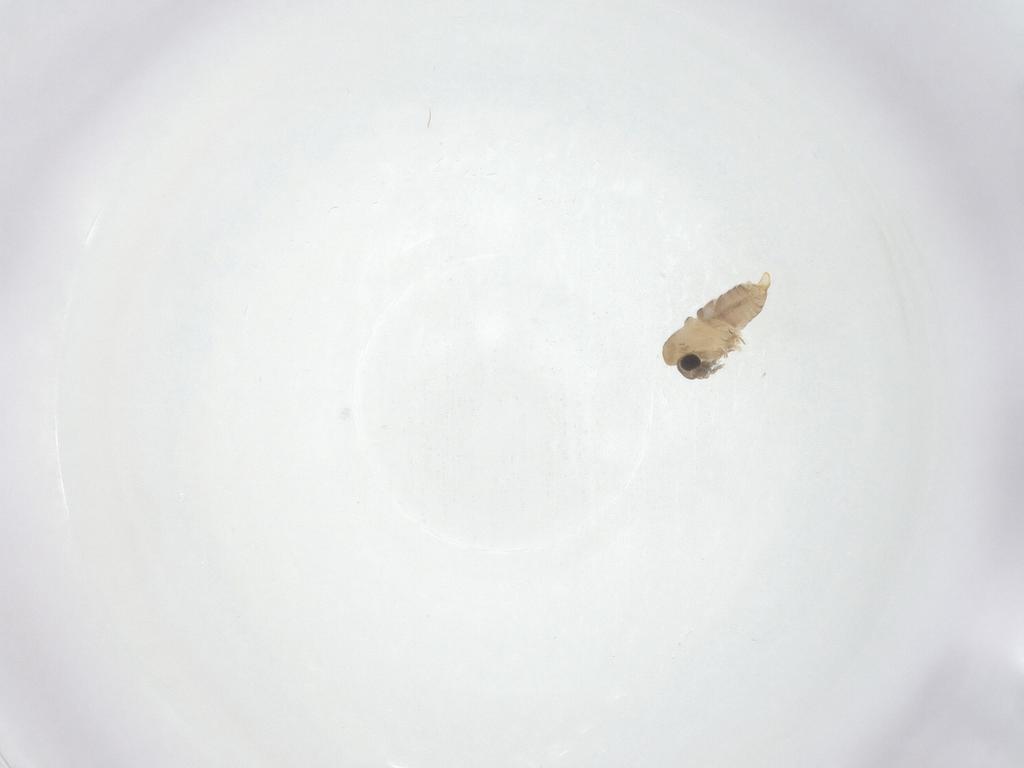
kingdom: Animalia
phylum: Arthropoda
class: Insecta
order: Diptera
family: Psychodidae
